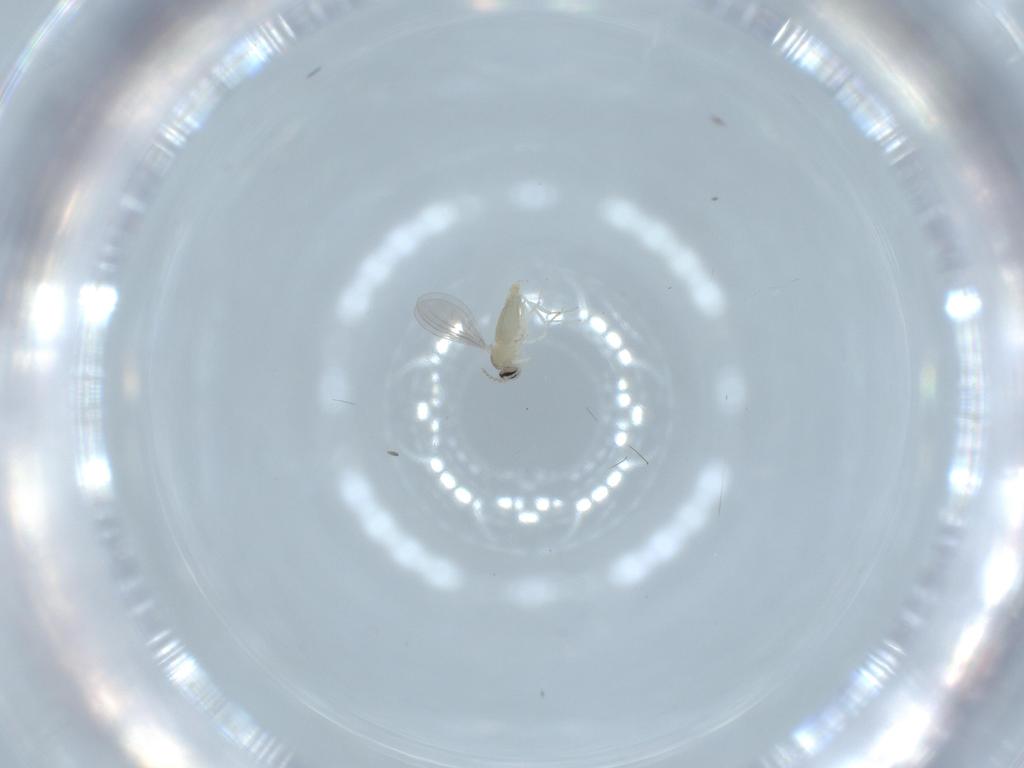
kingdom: Animalia
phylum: Arthropoda
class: Insecta
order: Diptera
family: Cecidomyiidae
